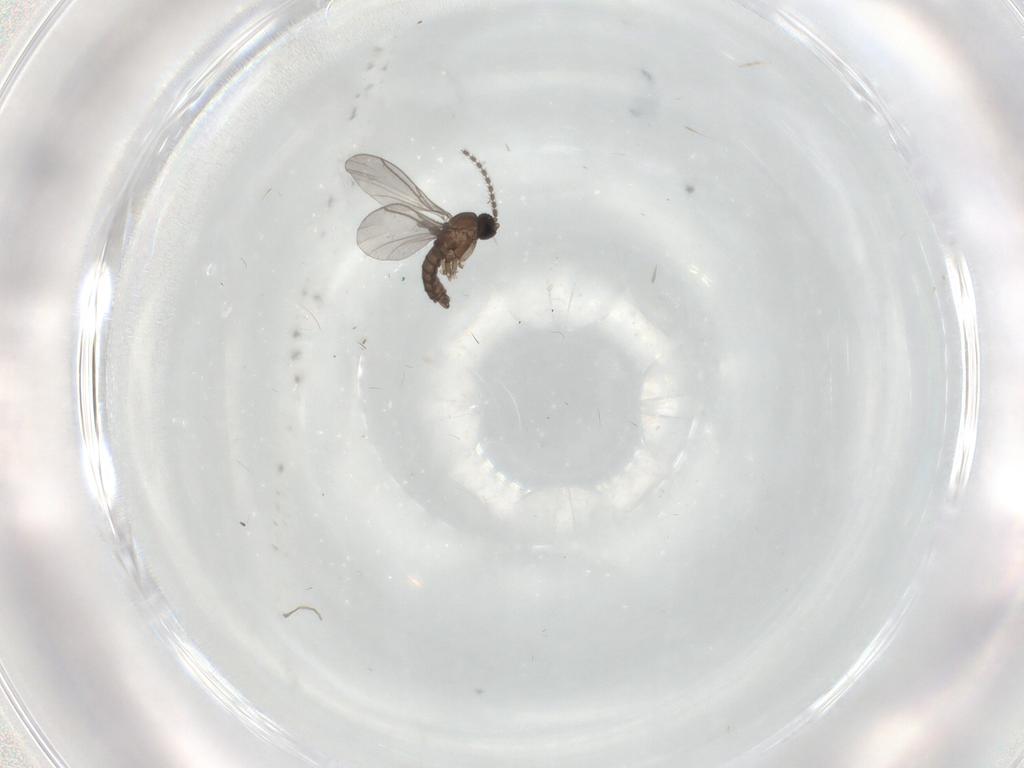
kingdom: Animalia
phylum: Arthropoda
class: Insecta
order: Diptera
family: Sciaridae
